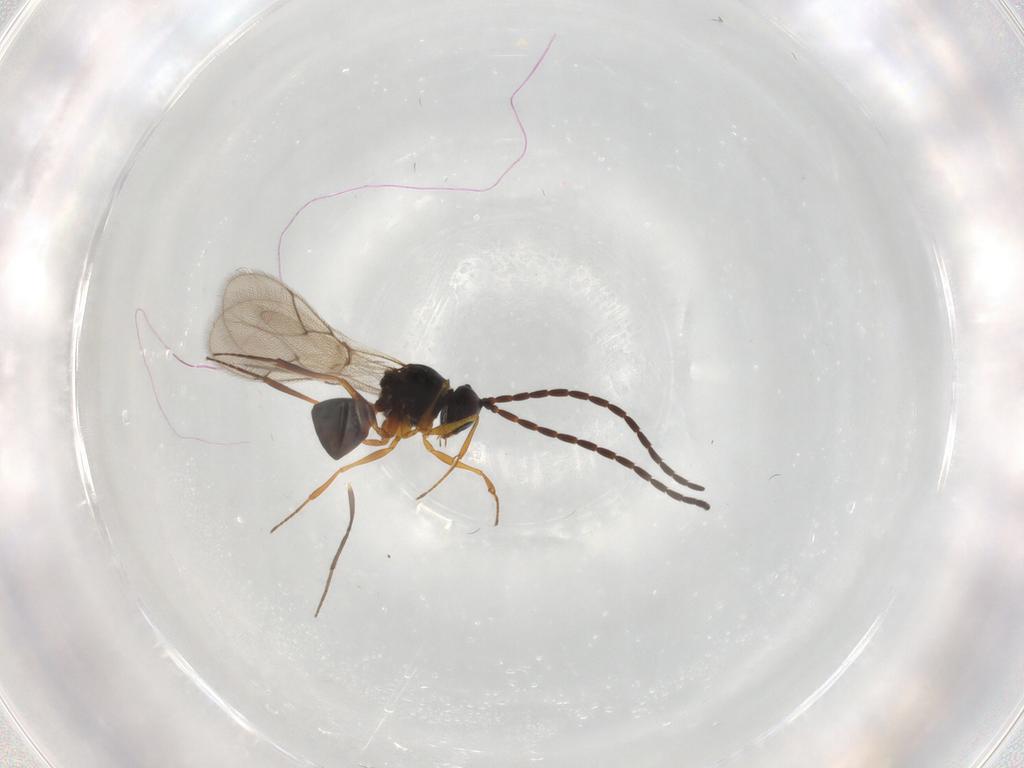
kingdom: Animalia
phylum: Arthropoda
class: Insecta
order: Hymenoptera
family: Figitidae
